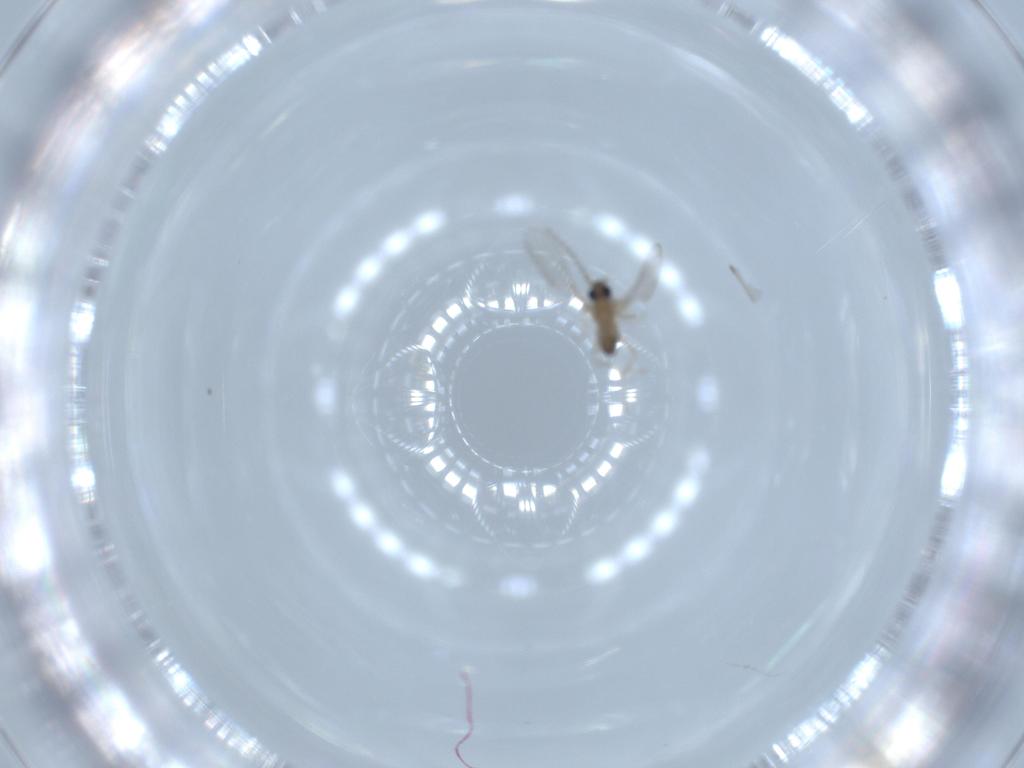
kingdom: Animalia
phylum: Arthropoda
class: Insecta
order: Diptera
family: Cecidomyiidae
